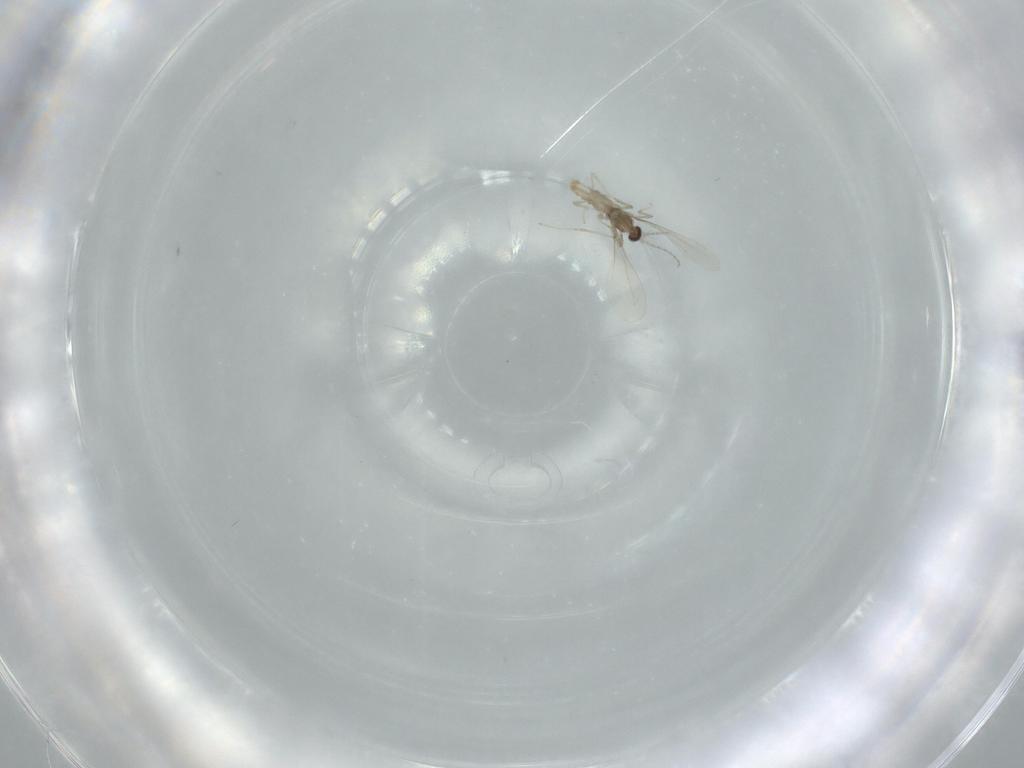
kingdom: Animalia
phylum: Arthropoda
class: Insecta
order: Diptera
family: Cecidomyiidae
